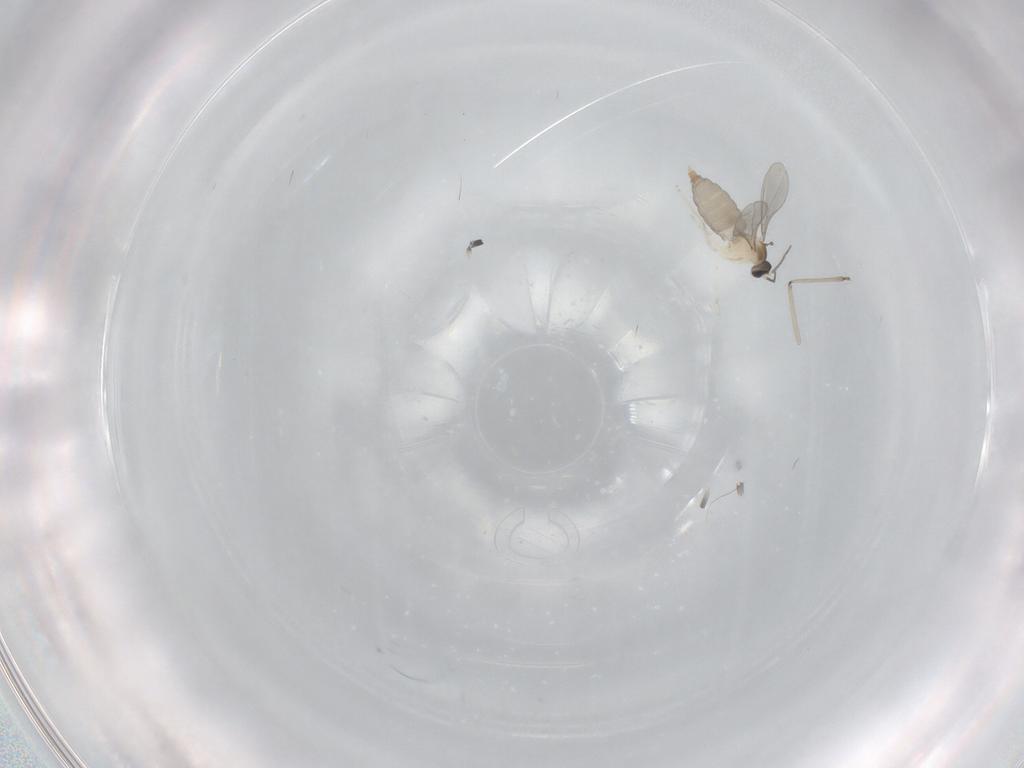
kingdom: Animalia
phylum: Arthropoda
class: Insecta
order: Diptera
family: Cecidomyiidae
